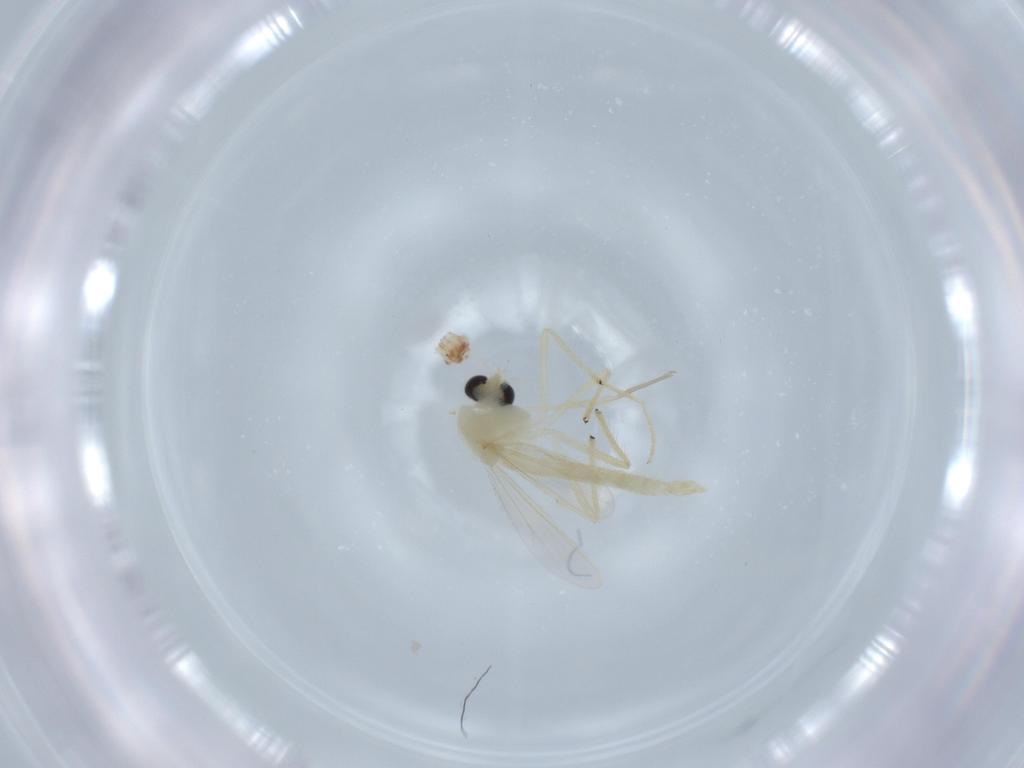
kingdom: Animalia
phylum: Arthropoda
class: Insecta
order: Diptera
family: Chironomidae
